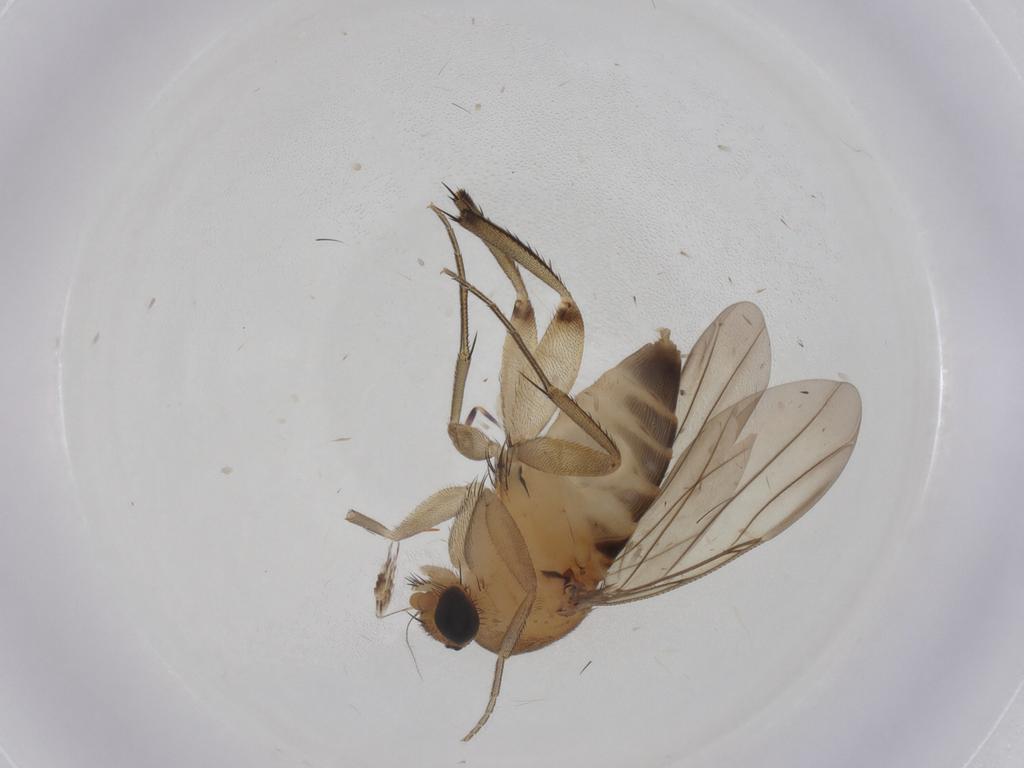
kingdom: Animalia
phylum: Arthropoda
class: Insecta
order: Diptera
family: Phoridae
